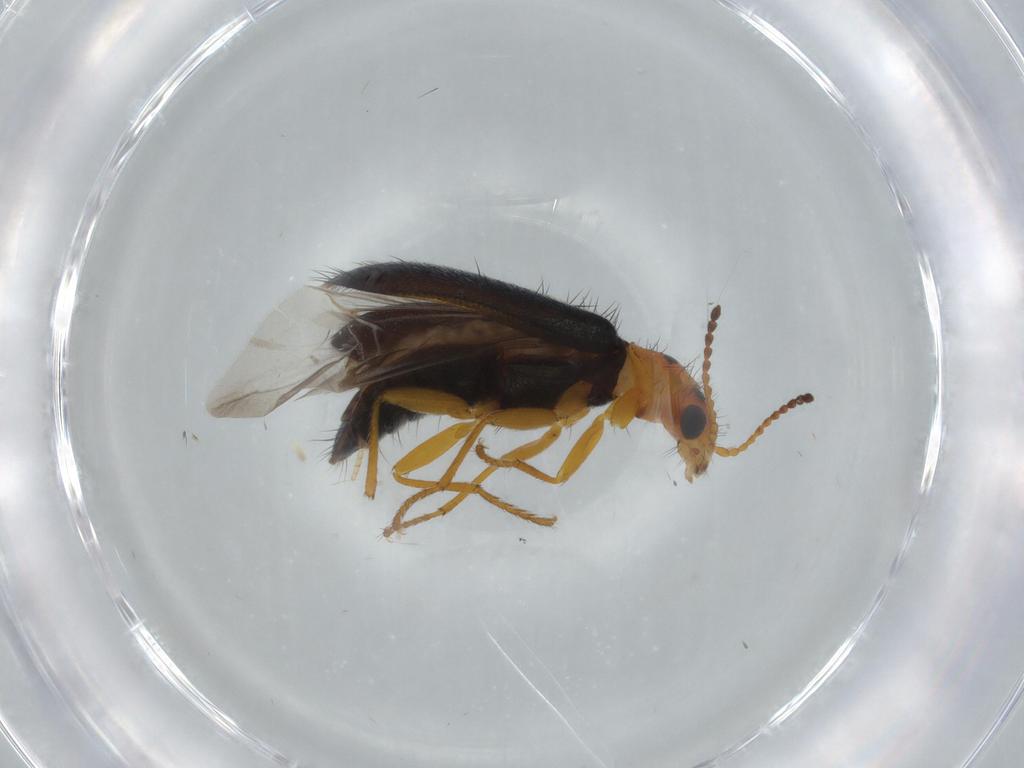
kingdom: Animalia
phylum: Arthropoda
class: Insecta
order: Coleoptera
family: Melyridae
